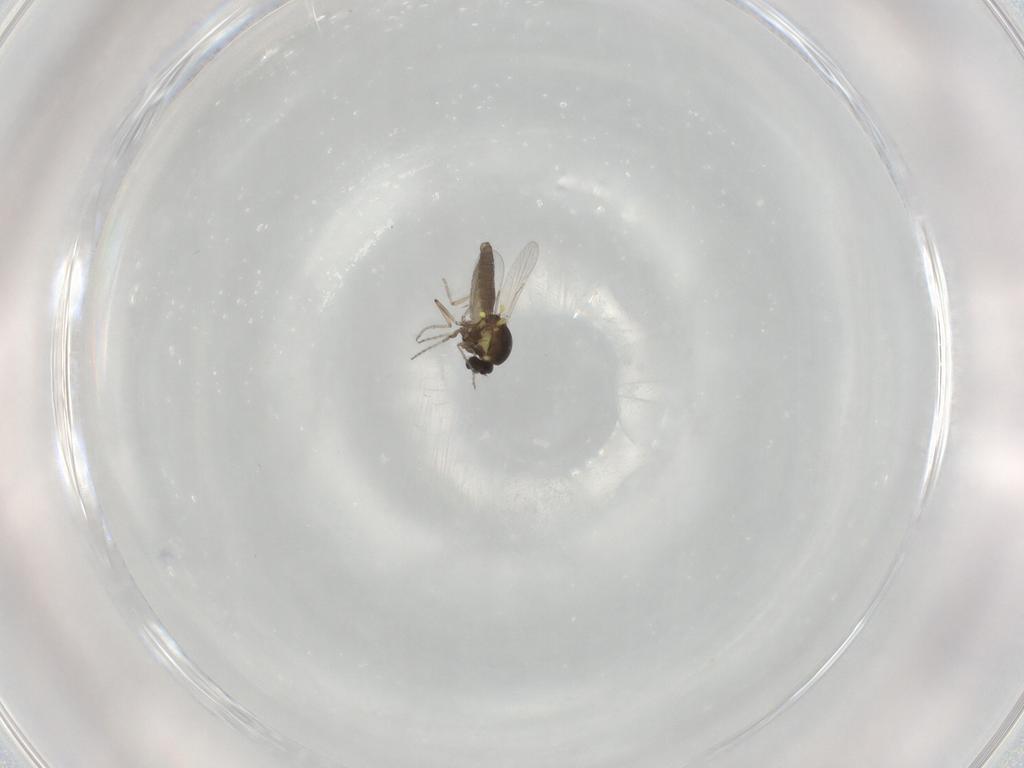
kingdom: Animalia
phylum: Arthropoda
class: Insecta
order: Diptera
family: Ceratopogonidae
